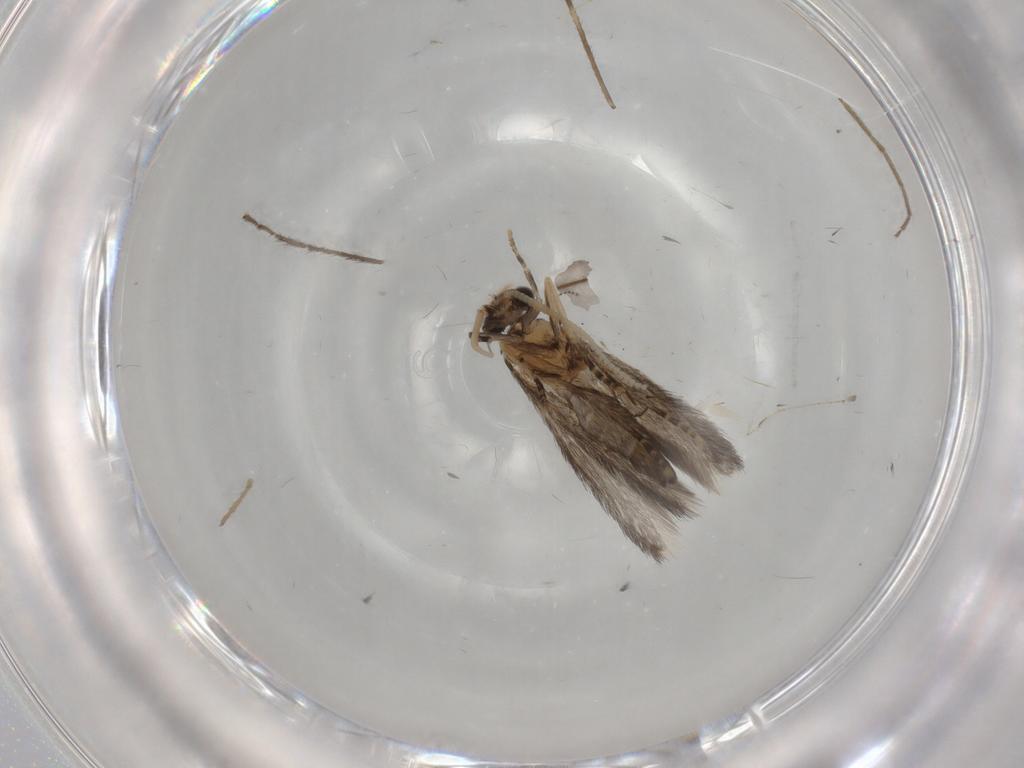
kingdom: Animalia
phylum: Arthropoda
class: Insecta
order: Trichoptera
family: Hydroptilidae
